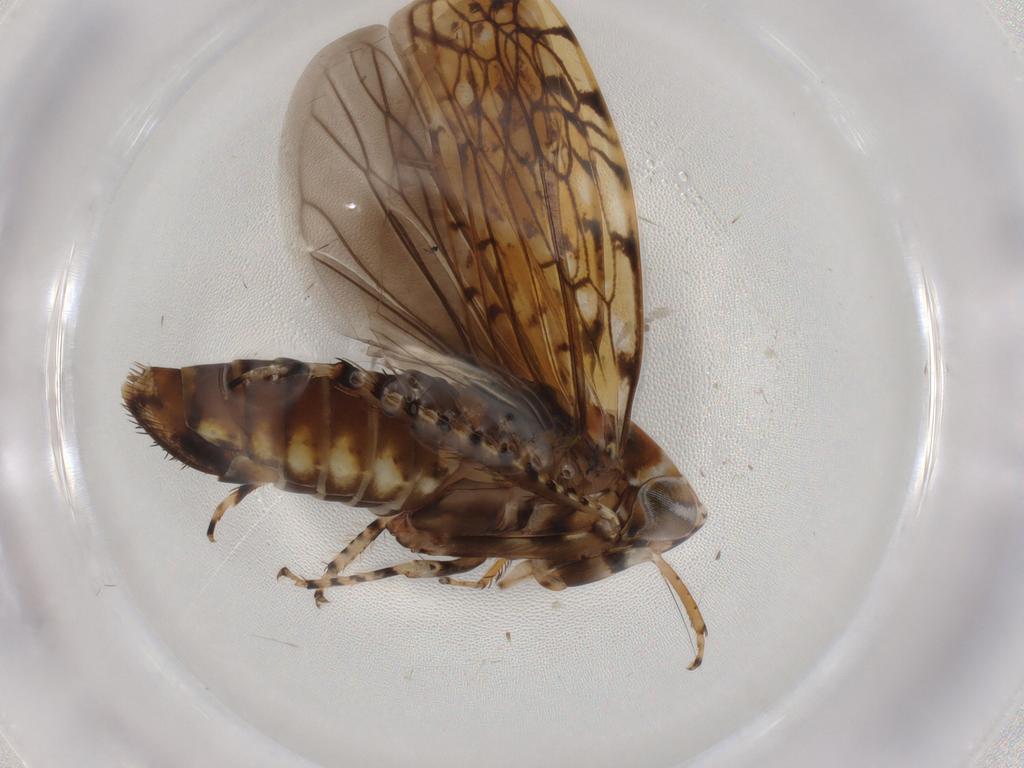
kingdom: Animalia
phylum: Arthropoda
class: Insecta
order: Hemiptera
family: Cicadellidae
